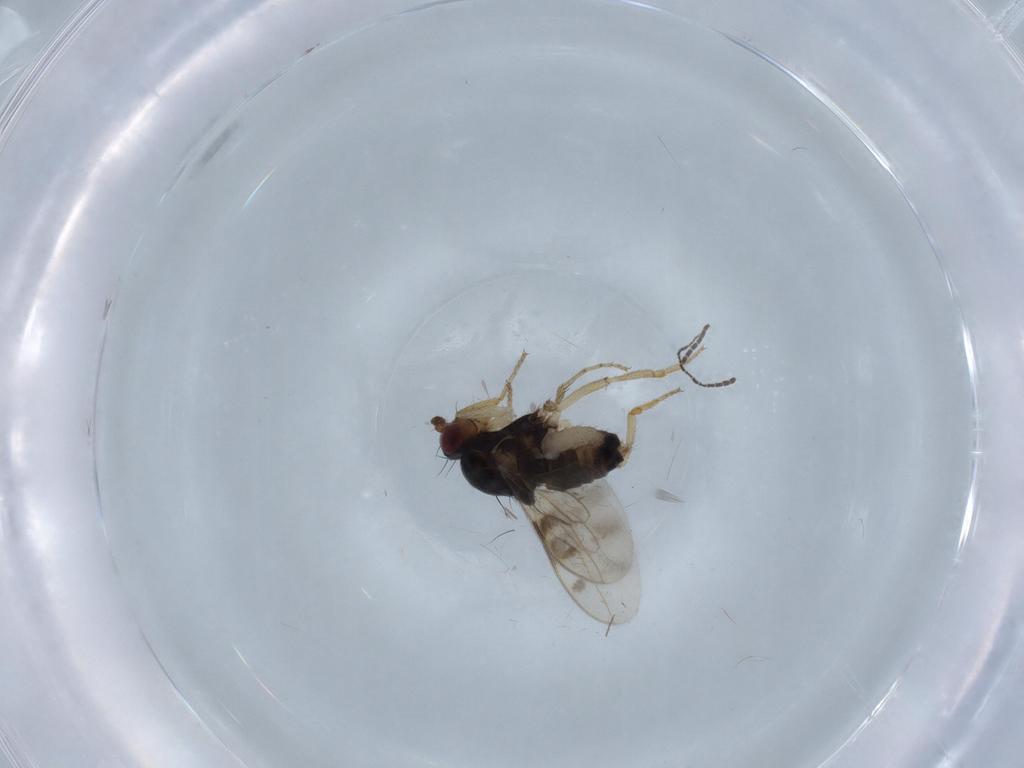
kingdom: Animalia
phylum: Arthropoda
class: Insecta
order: Diptera
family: Sphaeroceridae
